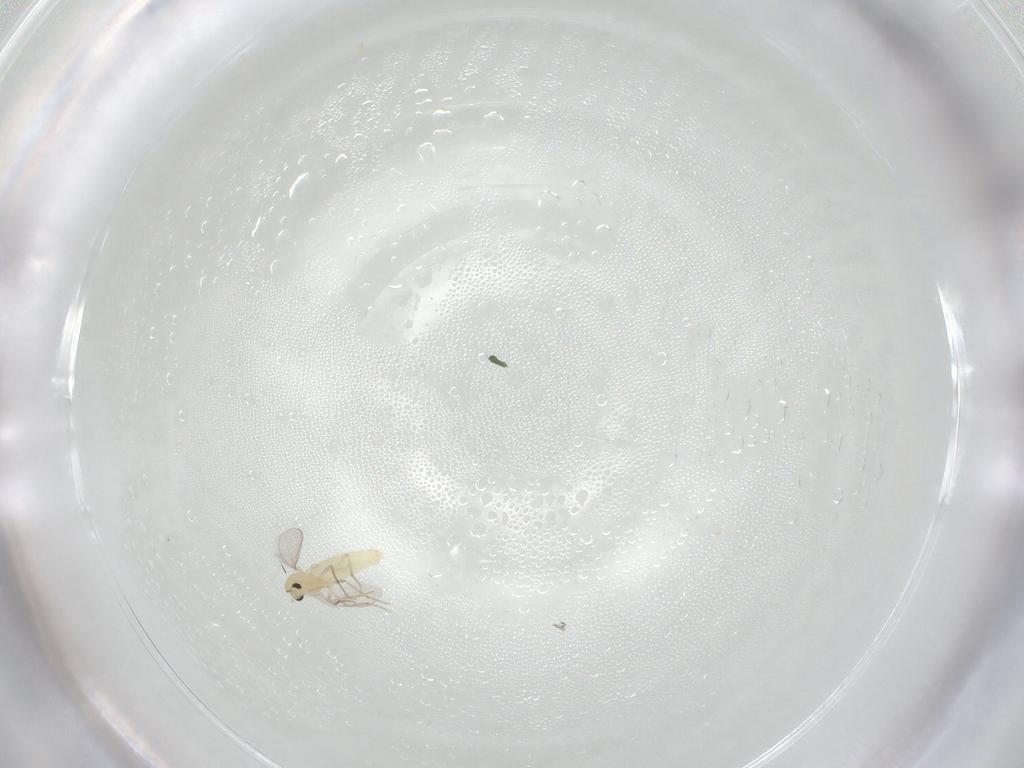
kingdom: Animalia
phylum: Arthropoda
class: Insecta
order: Diptera
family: Chironomidae
